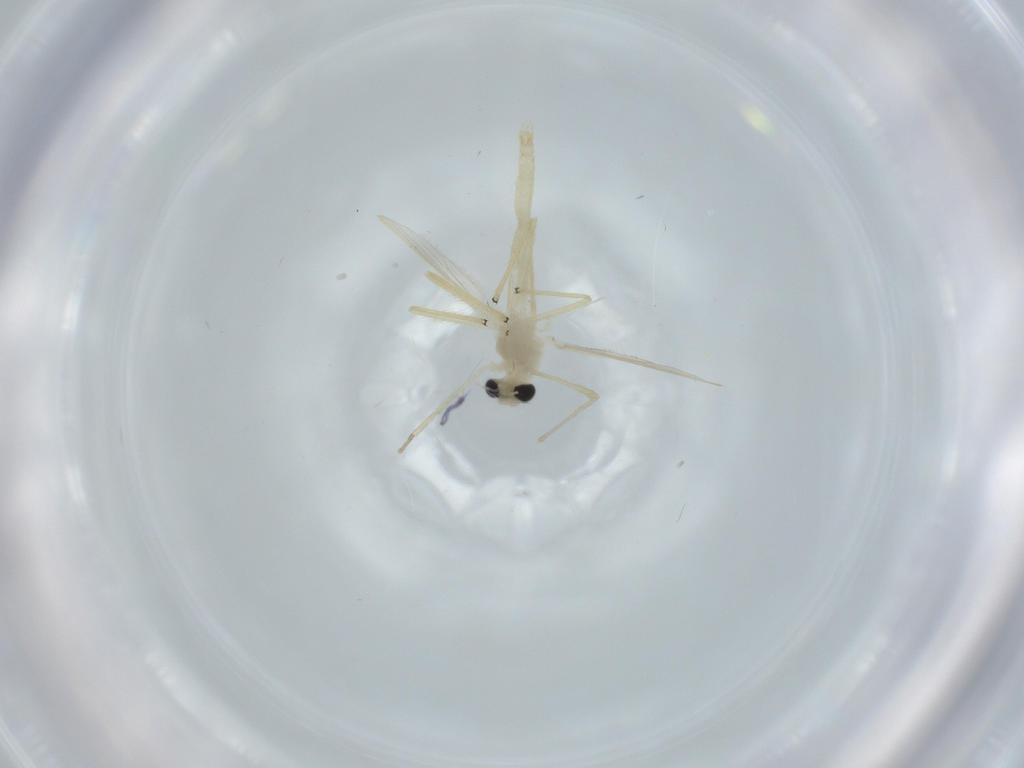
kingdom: Animalia
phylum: Arthropoda
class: Insecta
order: Diptera
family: Chironomidae
